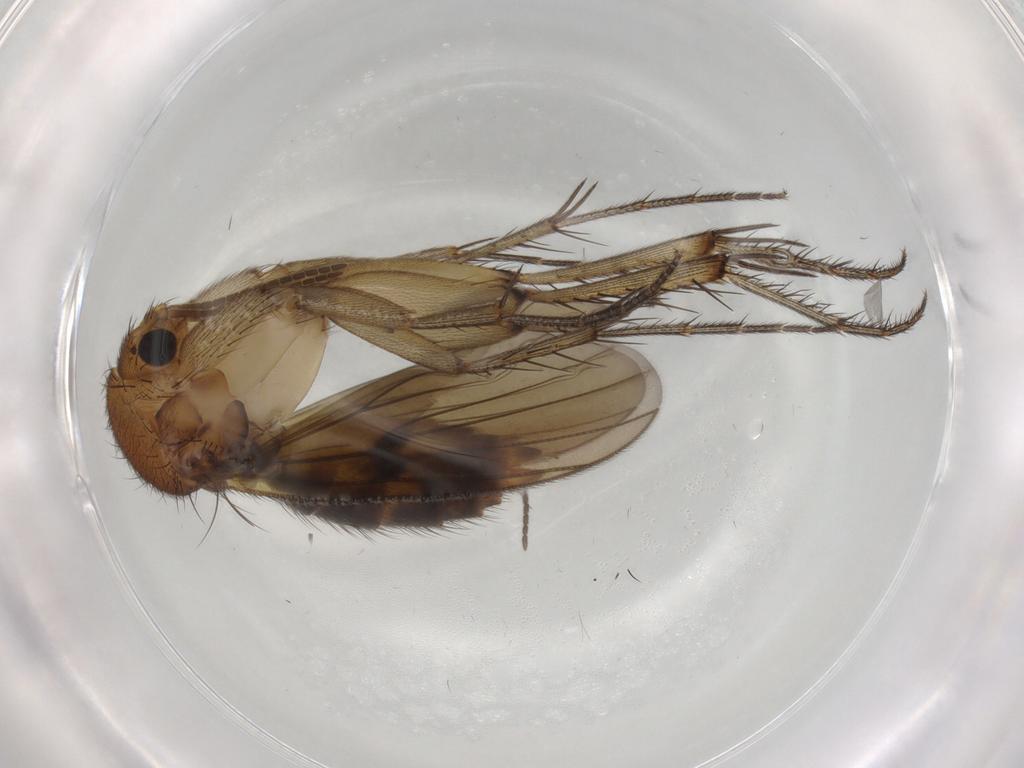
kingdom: Animalia
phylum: Arthropoda
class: Insecta
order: Diptera
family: Mycetophilidae
